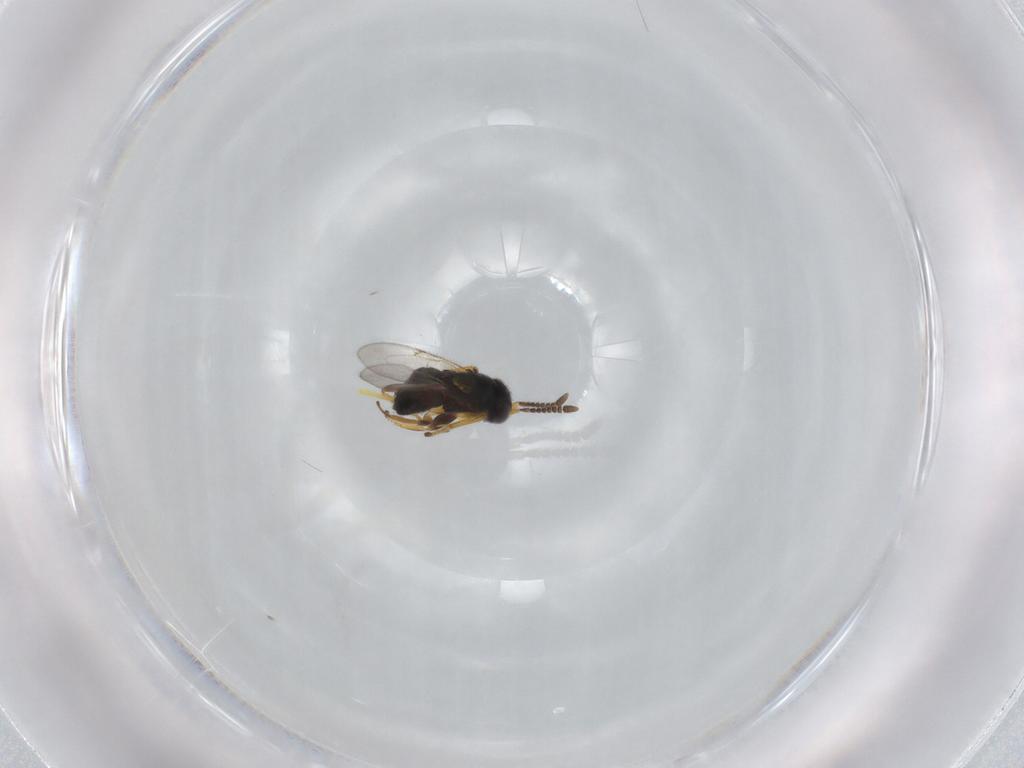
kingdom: Animalia
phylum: Arthropoda
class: Insecta
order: Hymenoptera
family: Encyrtidae
